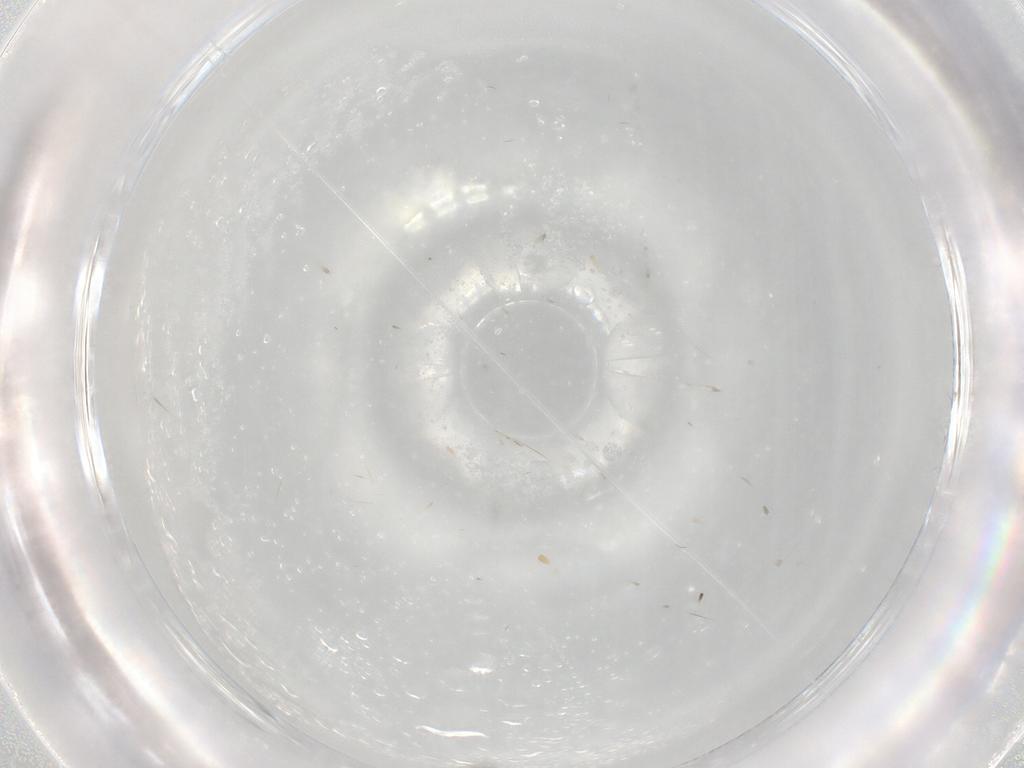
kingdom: Animalia
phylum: Arthropoda
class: Insecta
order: Hymenoptera
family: Eulophidae
